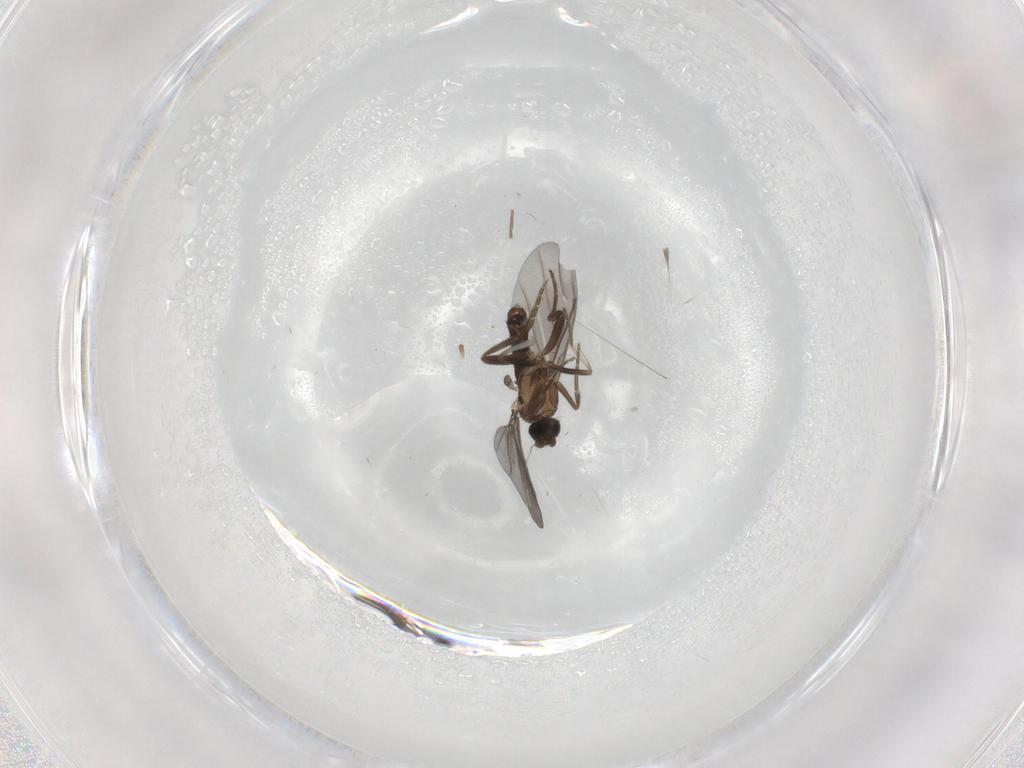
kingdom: Animalia
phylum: Arthropoda
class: Insecta
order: Diptera
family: Cecidomyiidae
